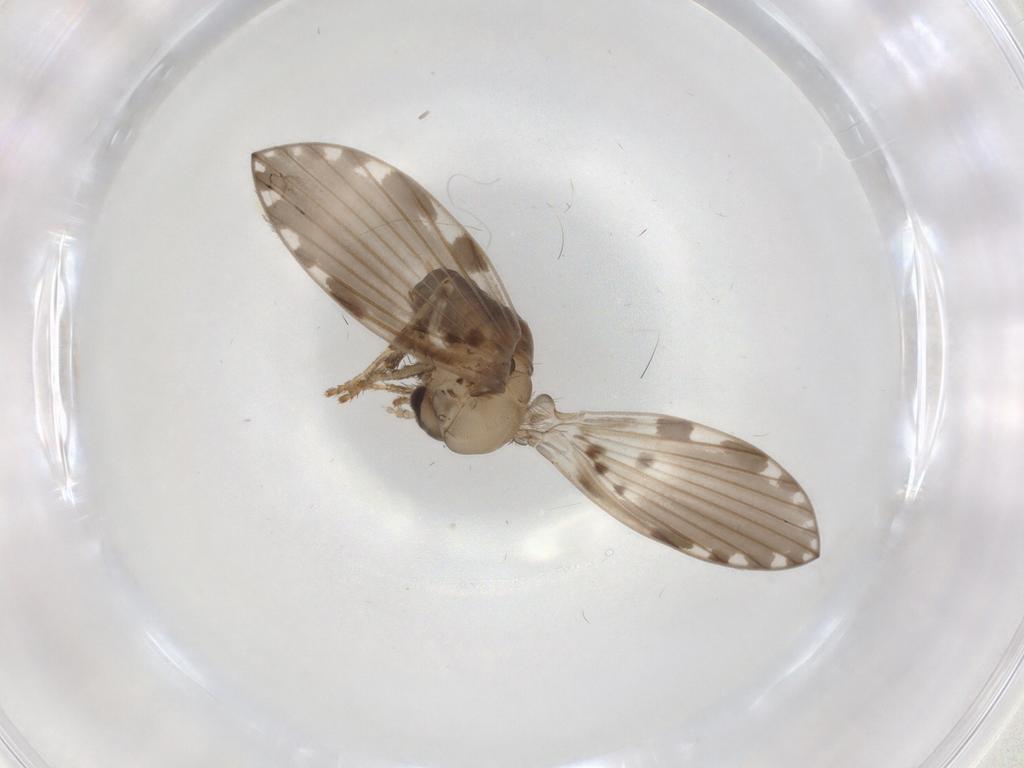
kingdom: Animalia
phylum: Arthropoda
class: Insecta
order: Diptera
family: Psychodidae
